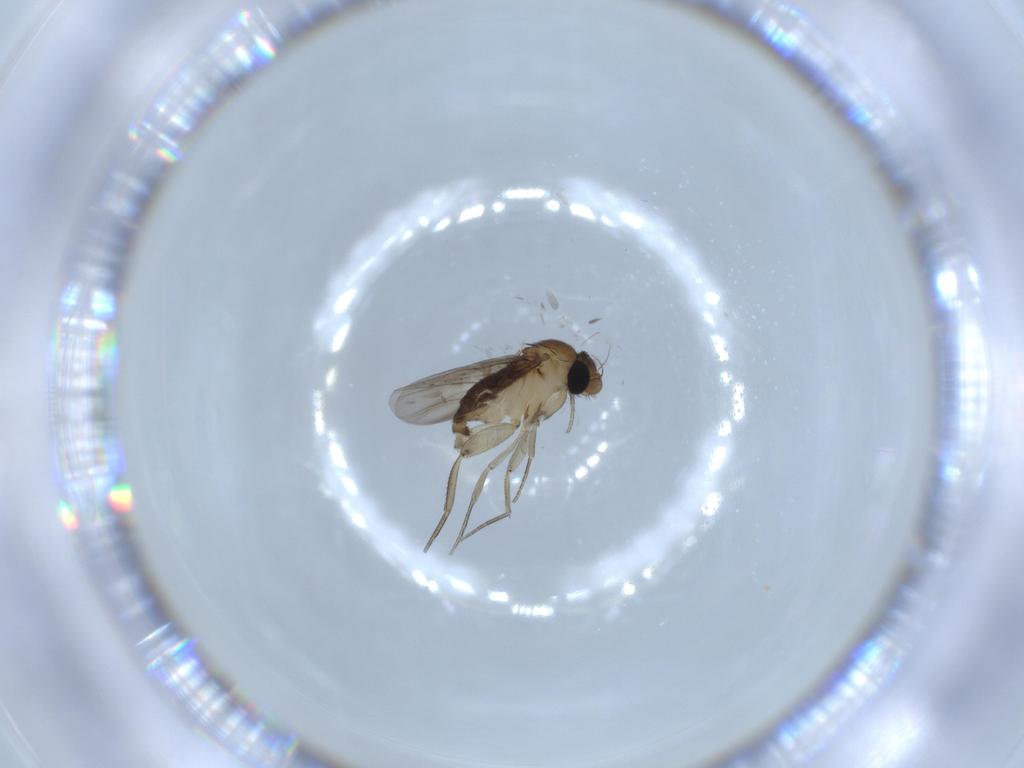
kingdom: Animalia
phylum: Arthropoda
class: Insecta
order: Diptera
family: Phoridae
